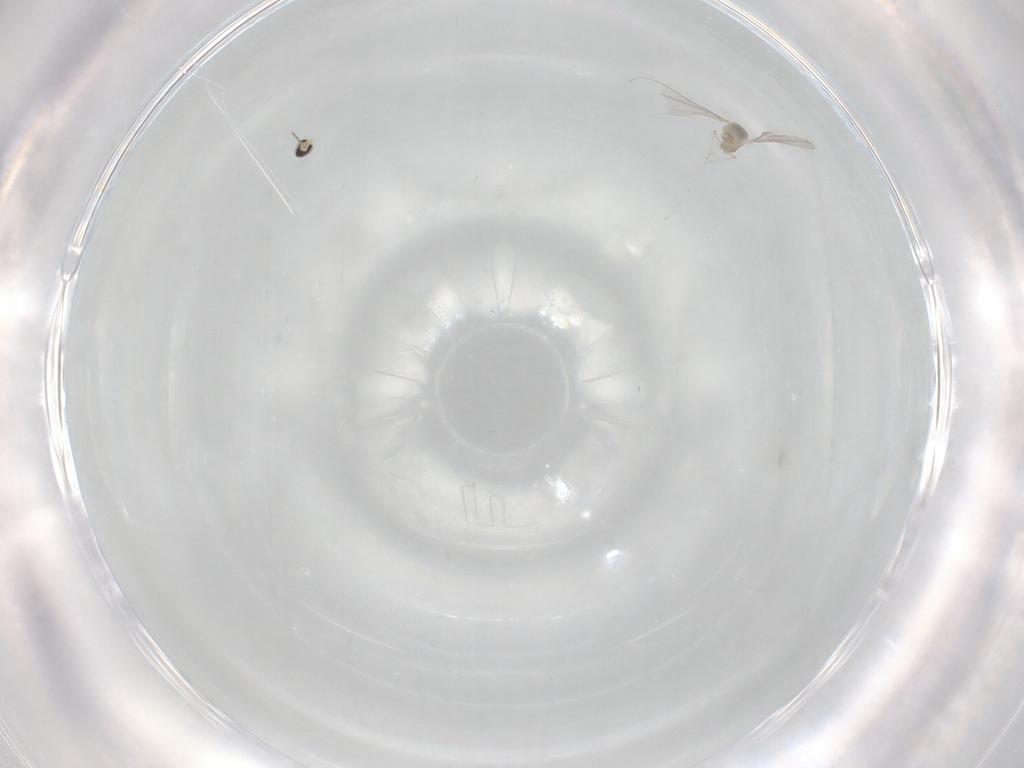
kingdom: Animalia
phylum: Arthropoda
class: Insecta
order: Diptera
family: Cecidomyiidae
